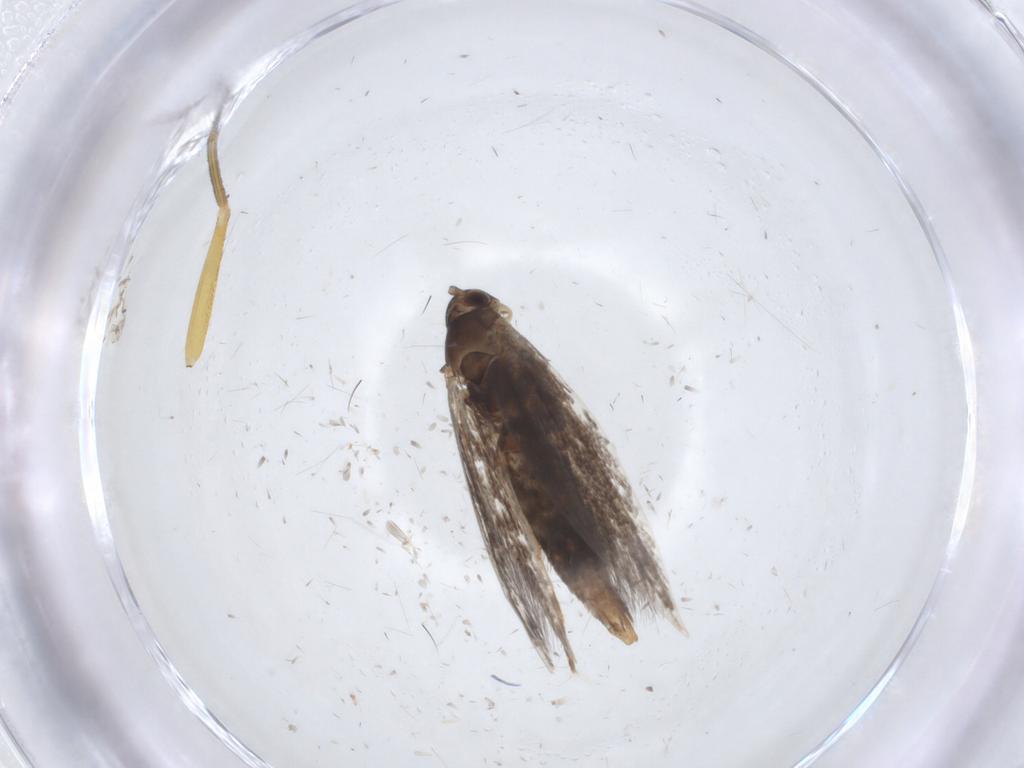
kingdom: Animalia
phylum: Arthropoda
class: Insecta
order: Lepidoptera
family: Elachistidae
